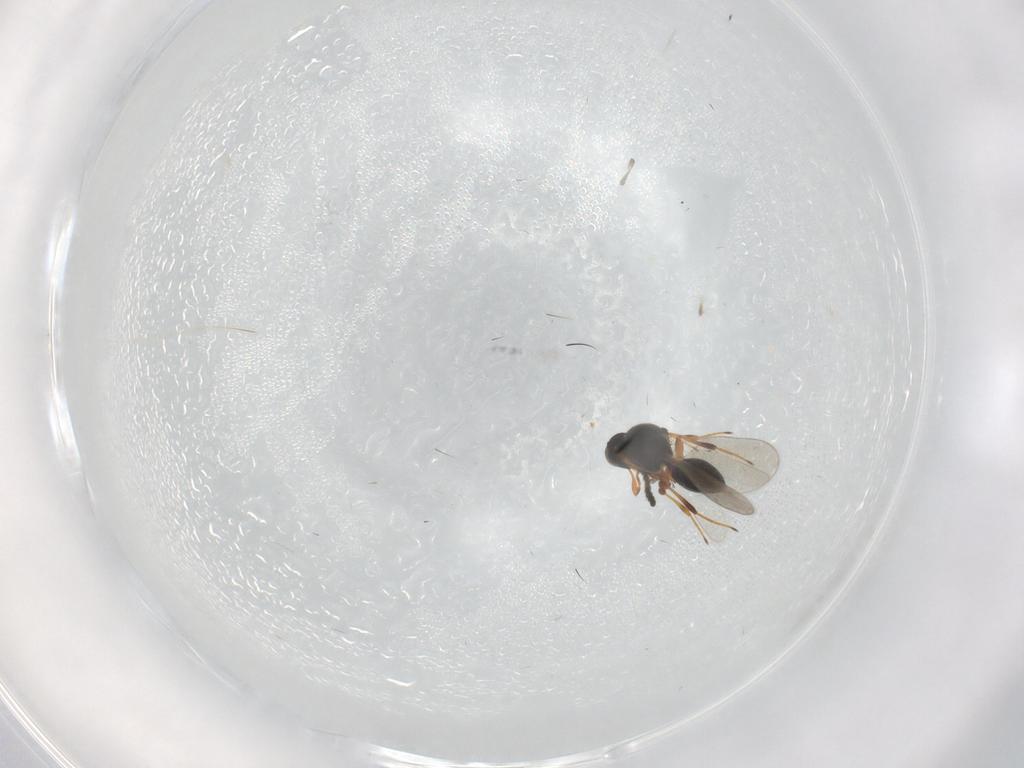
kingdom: Animalia
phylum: Arthropoda
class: Insecta
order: Hymenoptera
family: Platygastridae
